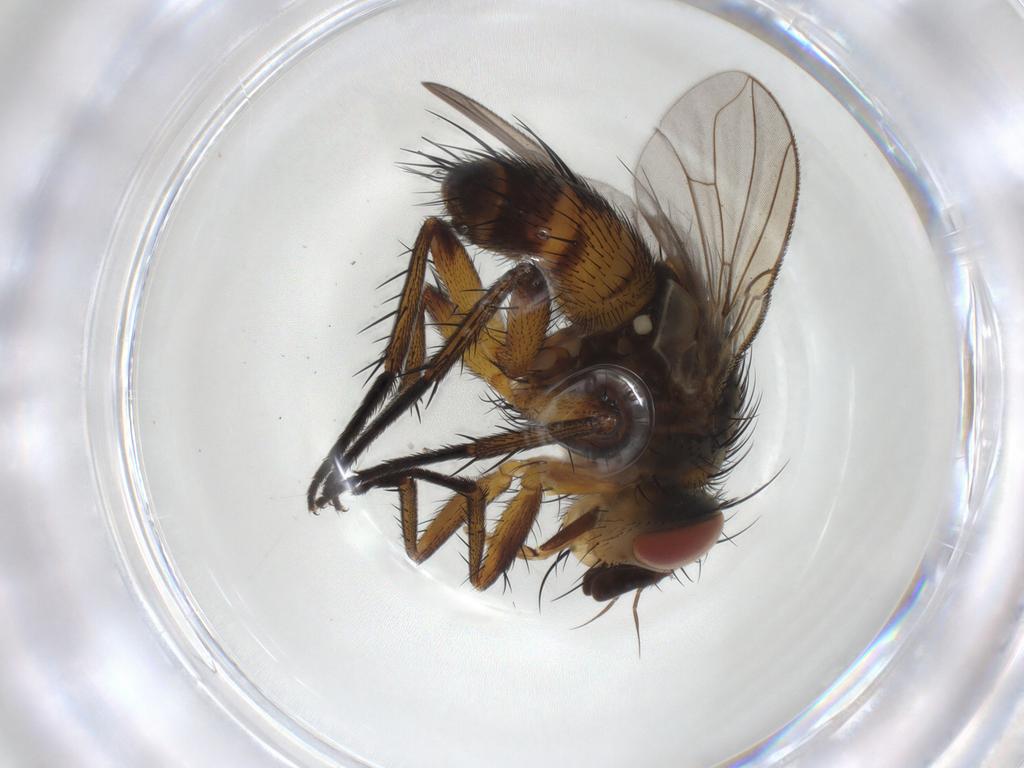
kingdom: Animalia
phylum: Arthropoda
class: Insecta
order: Diptera
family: Tachinidae
